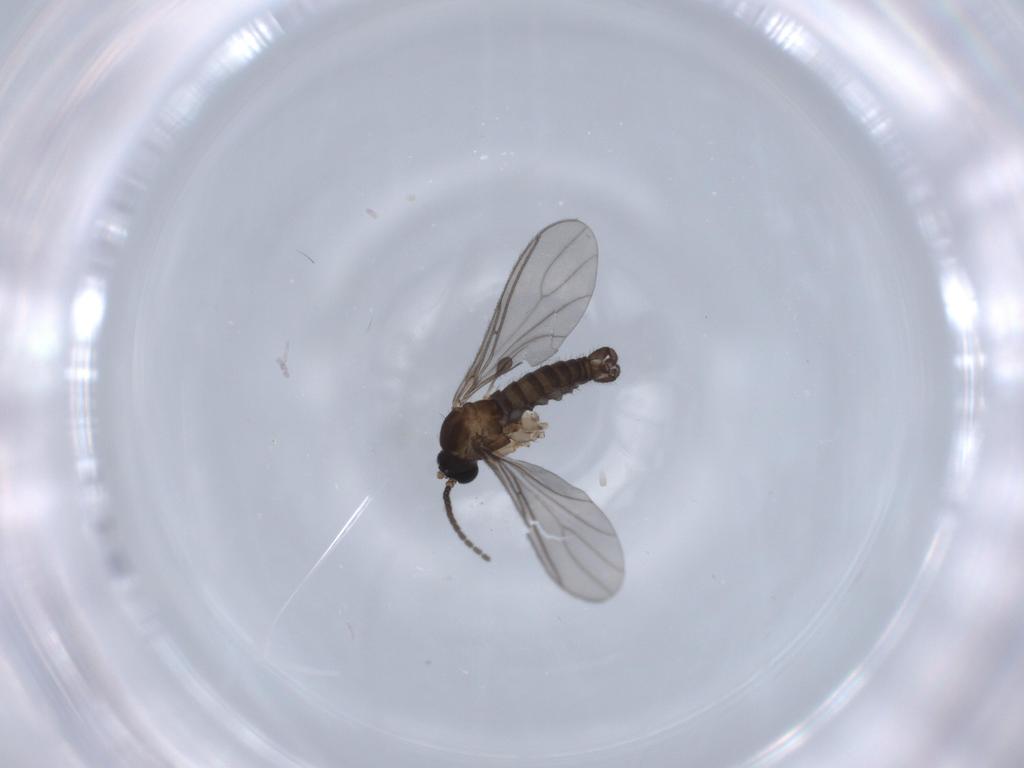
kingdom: Animalia
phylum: Arthropoda
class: Insecta
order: Diptera
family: Sciaridae
